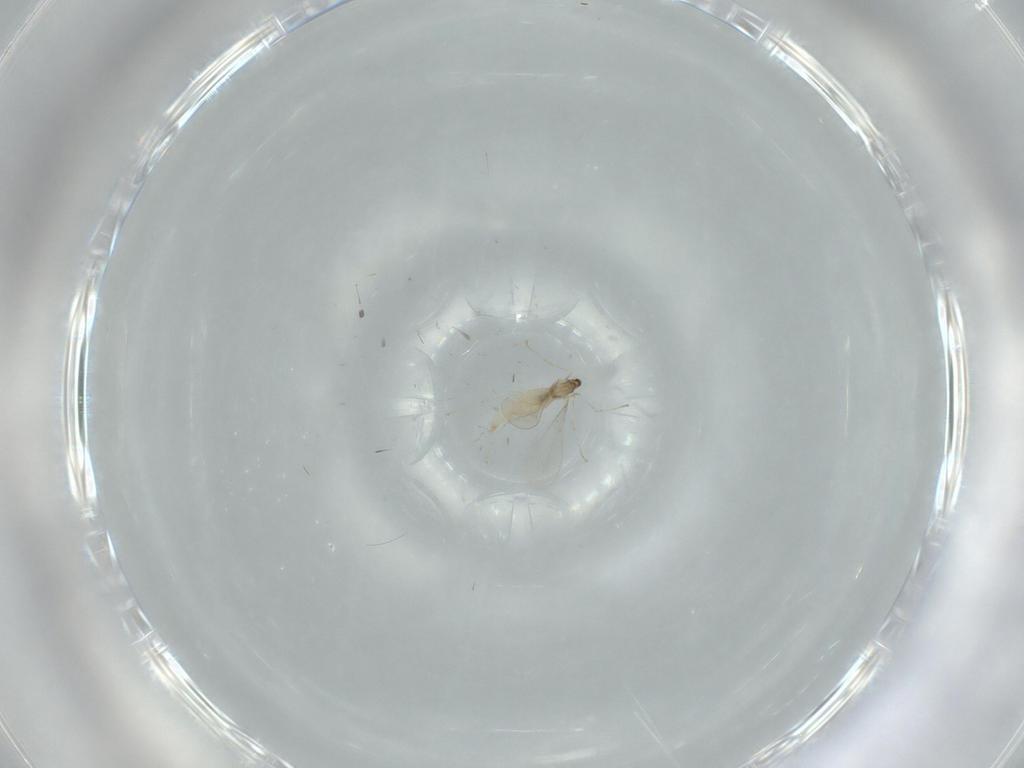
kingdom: Animalia
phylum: Arthropoda
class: Insecta
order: Diptera
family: Cecidomyiidae
